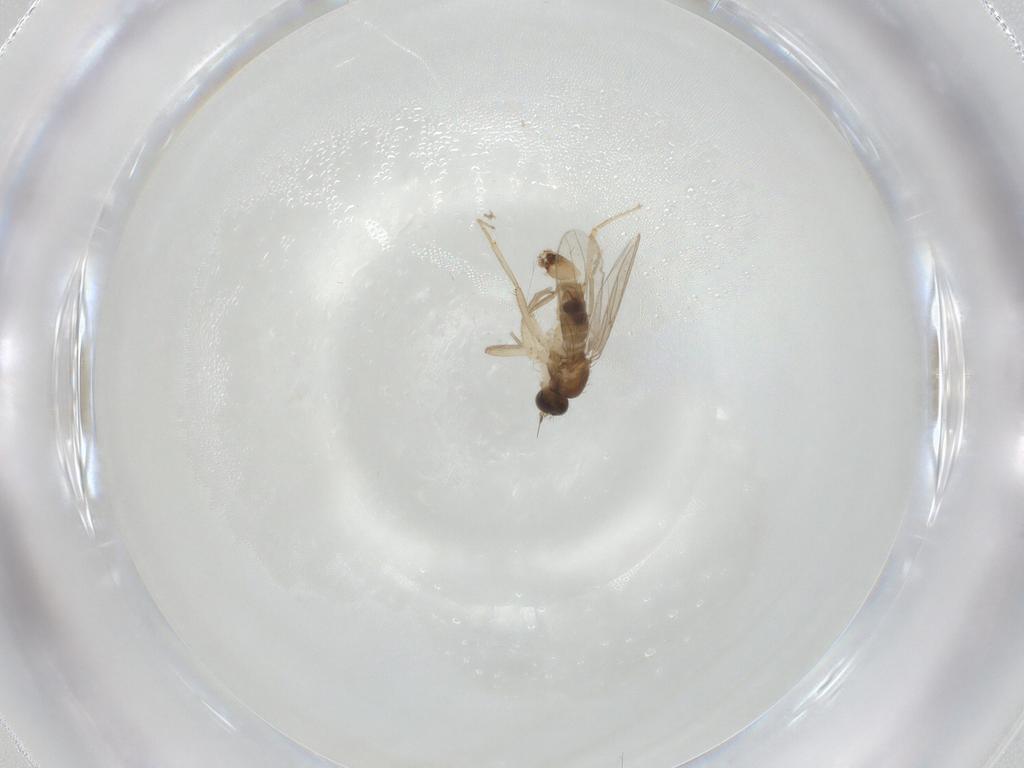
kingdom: Animalia
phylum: Arthropoda
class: Insecta
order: Diptera
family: Hybotidae
